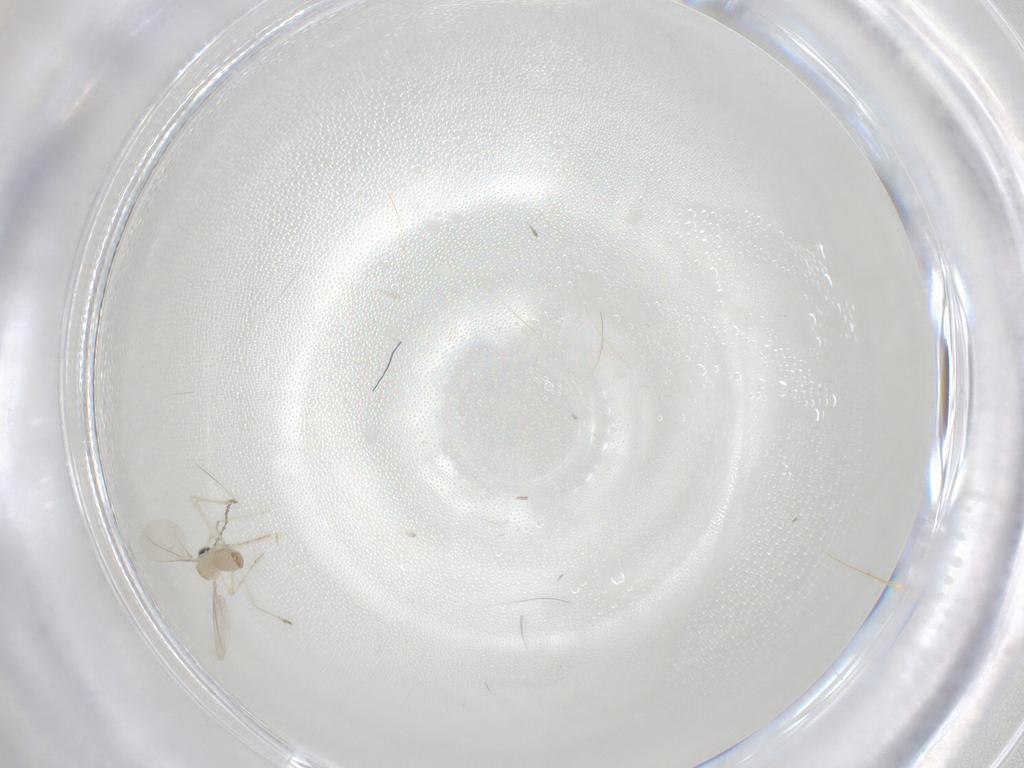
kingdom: Animalia
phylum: Arthropoda
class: Insecta
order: Diptera
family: Cecidomyiidae
